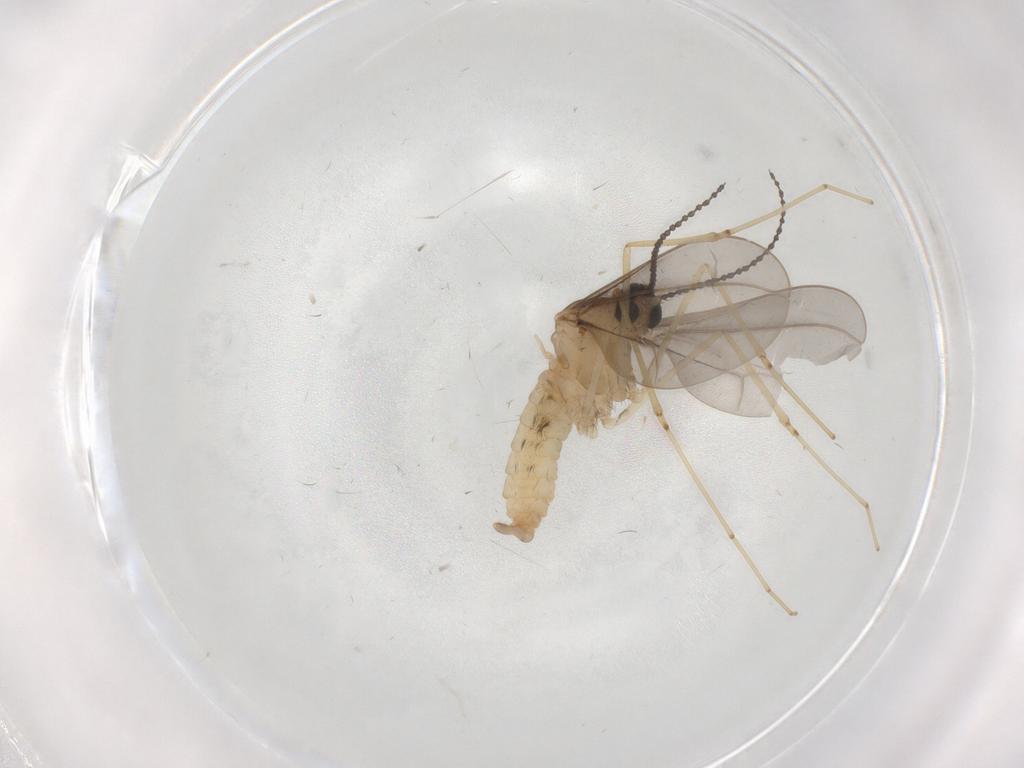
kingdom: Animalia
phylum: Arthropoda
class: Insecta
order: Diptera
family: Cecidomyiidae
